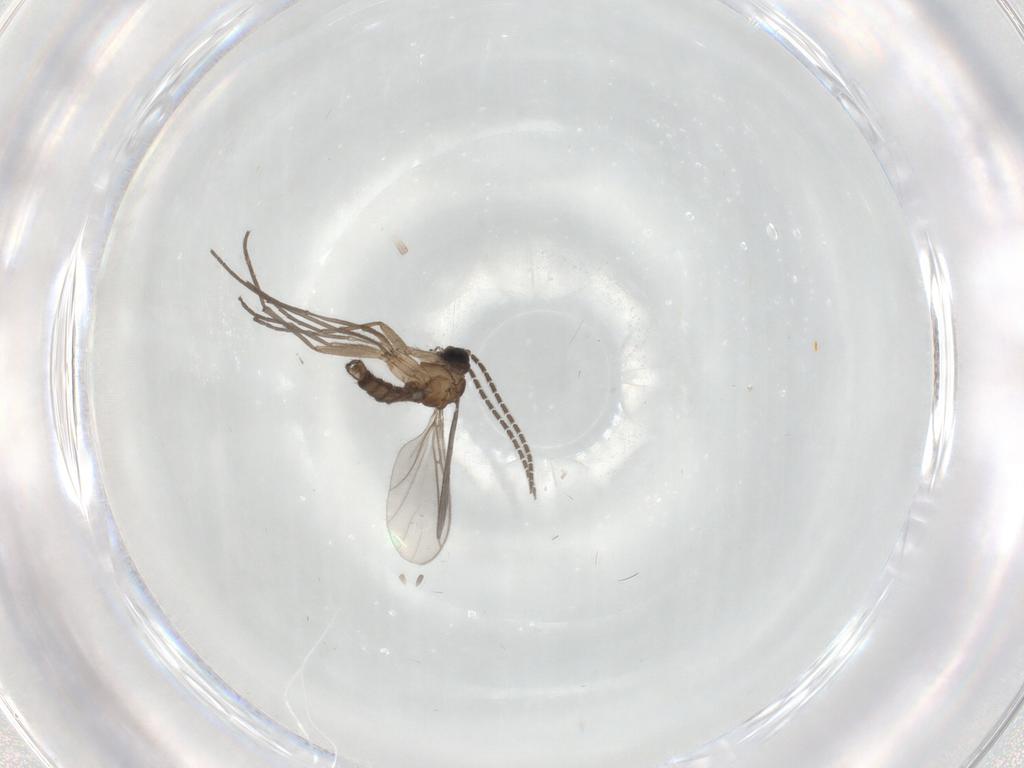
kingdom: Animalia
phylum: Arthropoda
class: Insecta
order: Diptera
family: Sciaridae
